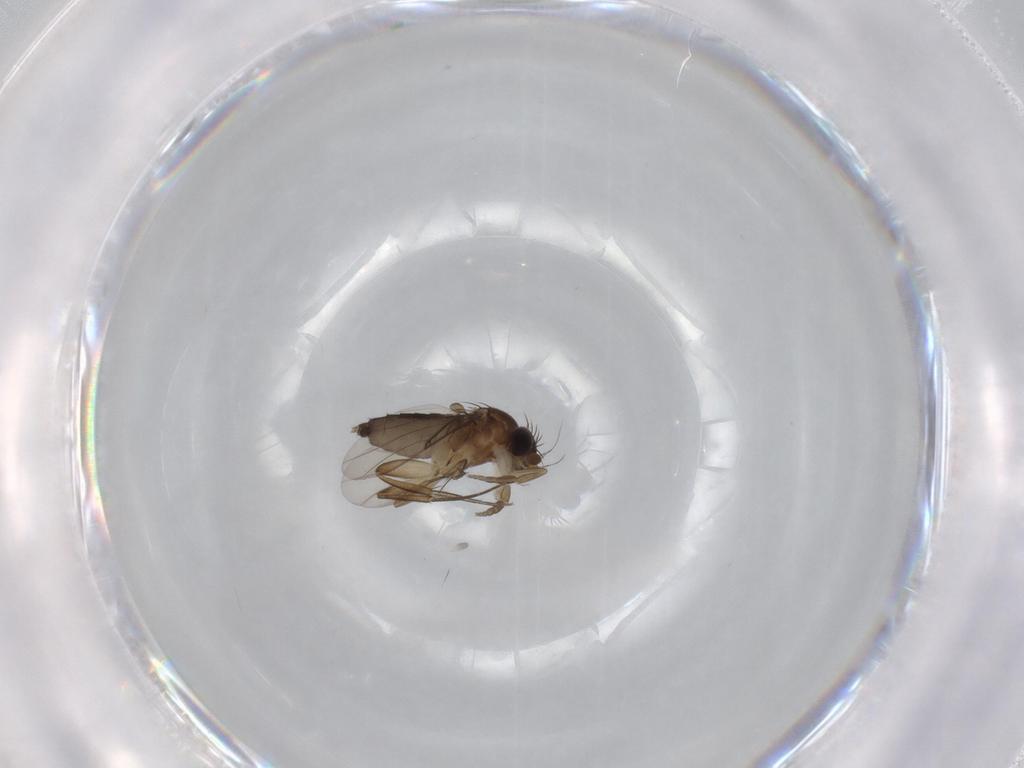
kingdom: Animalia
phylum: Arthropoda
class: Insecta
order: Diptera
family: Phoridae
